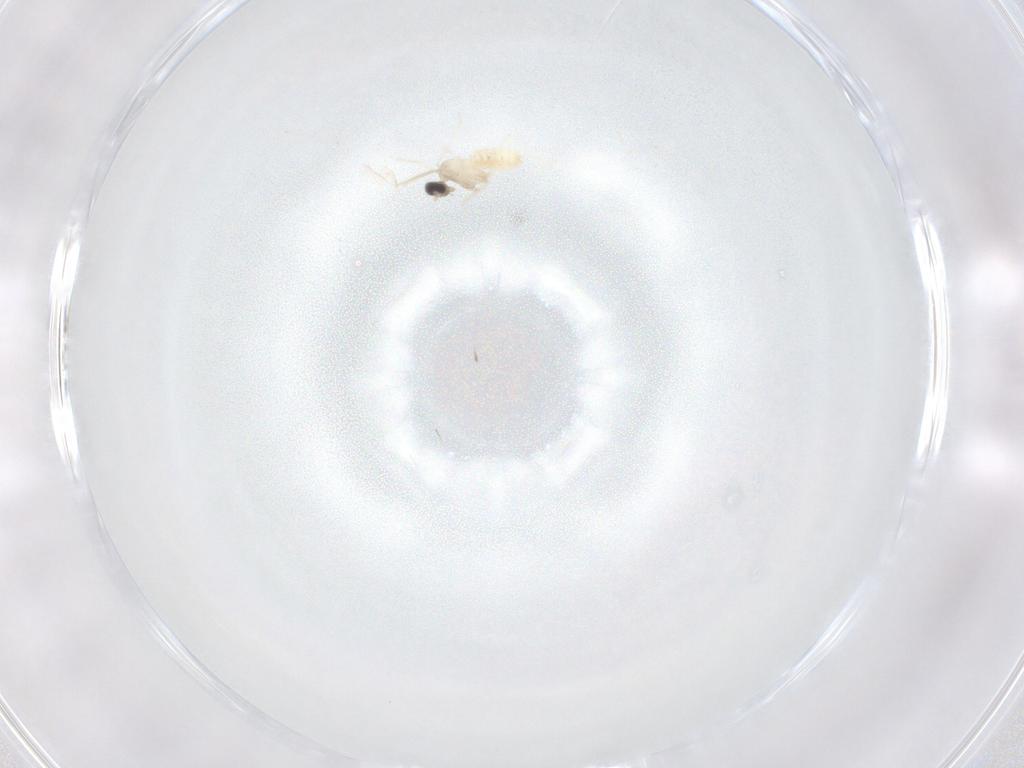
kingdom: Animalia
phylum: Arthropoda
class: Insecta
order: Diptera
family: Cecidomyiidae
